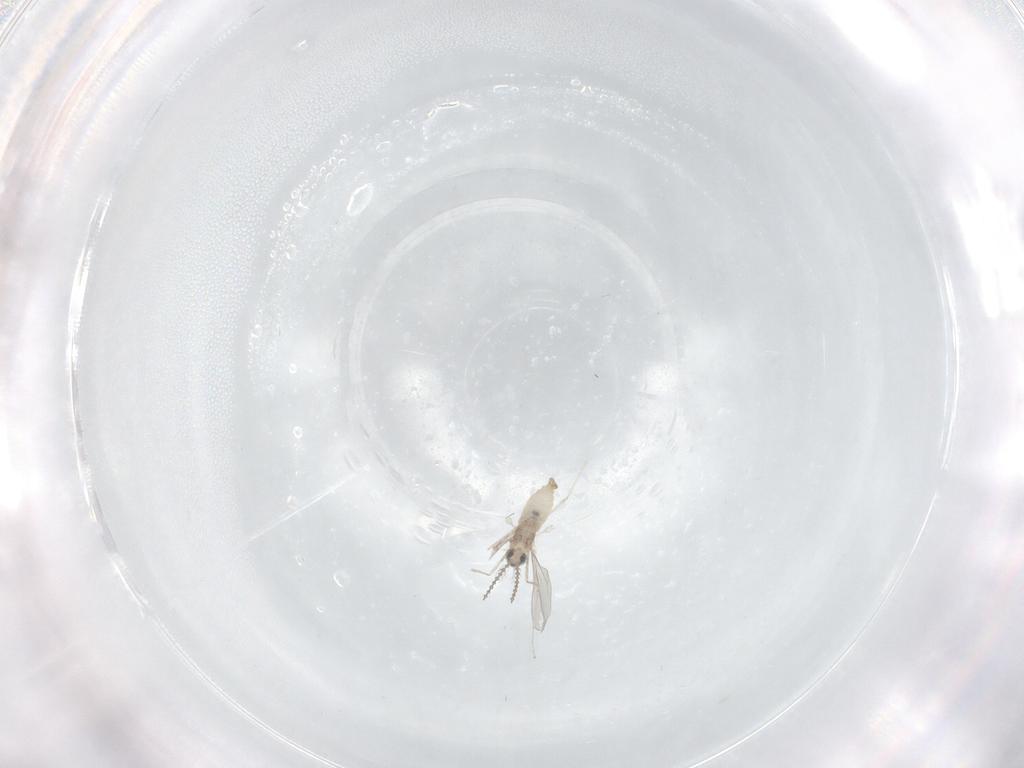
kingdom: Animalia
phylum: Arthropoda
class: Insecta
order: Diptera
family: Cecidomyiidae
